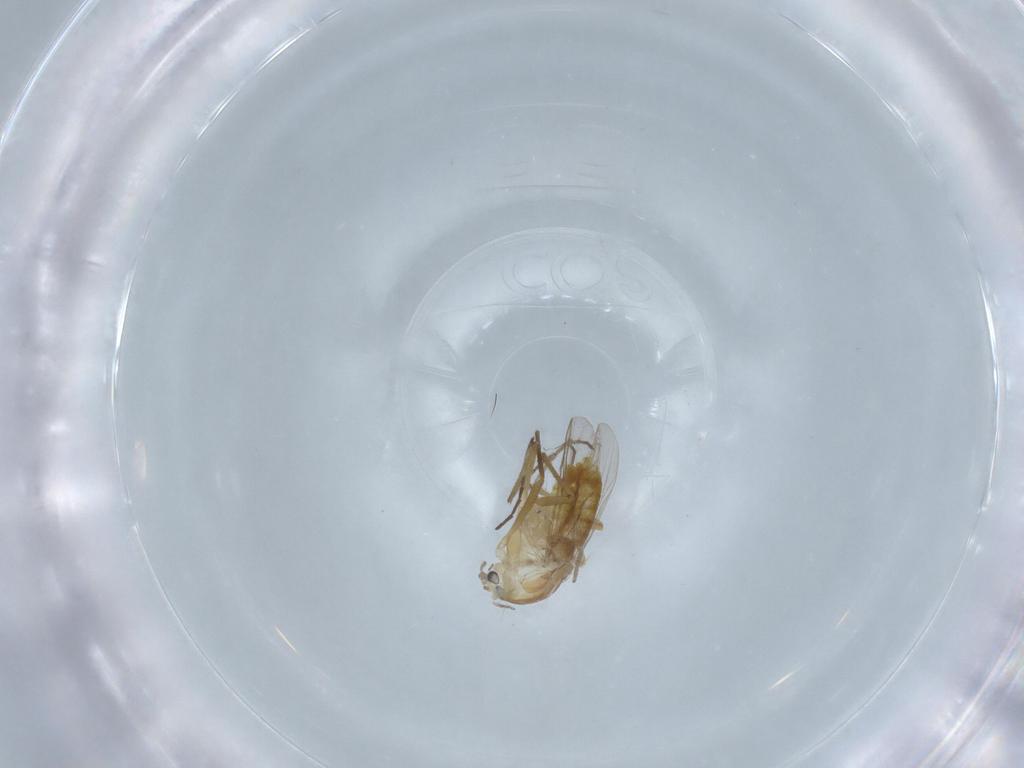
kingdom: Animalia
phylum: Arthropoda
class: Insecta
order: Diptera
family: Chironomidae
